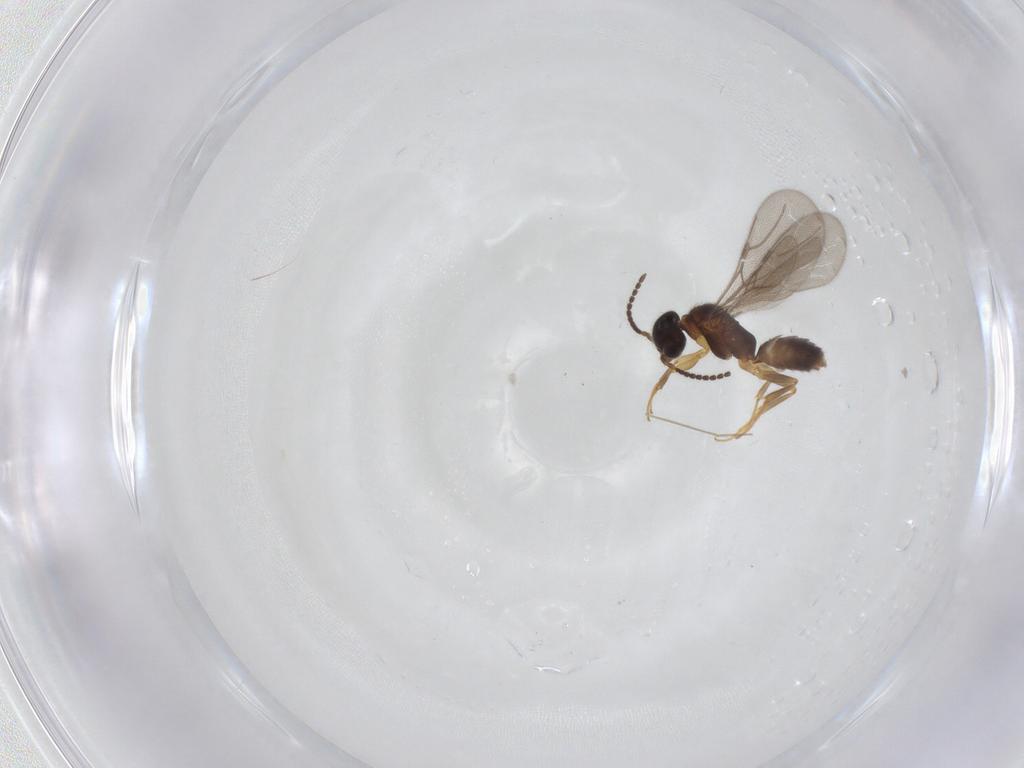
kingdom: Animalia
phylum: Arthropoda
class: Insecta
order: Hymenoptera
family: Bethylidae
